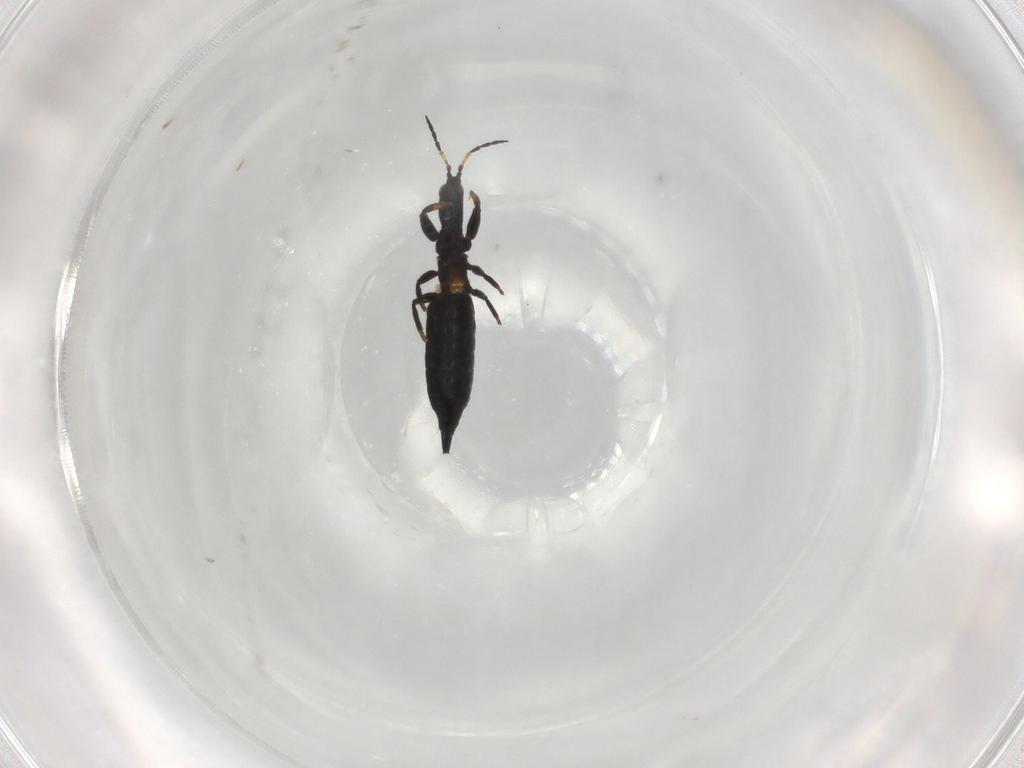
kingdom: Animalia
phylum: Arthropoda
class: Insecta
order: Thysanoptera
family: Phlaeothripidae
